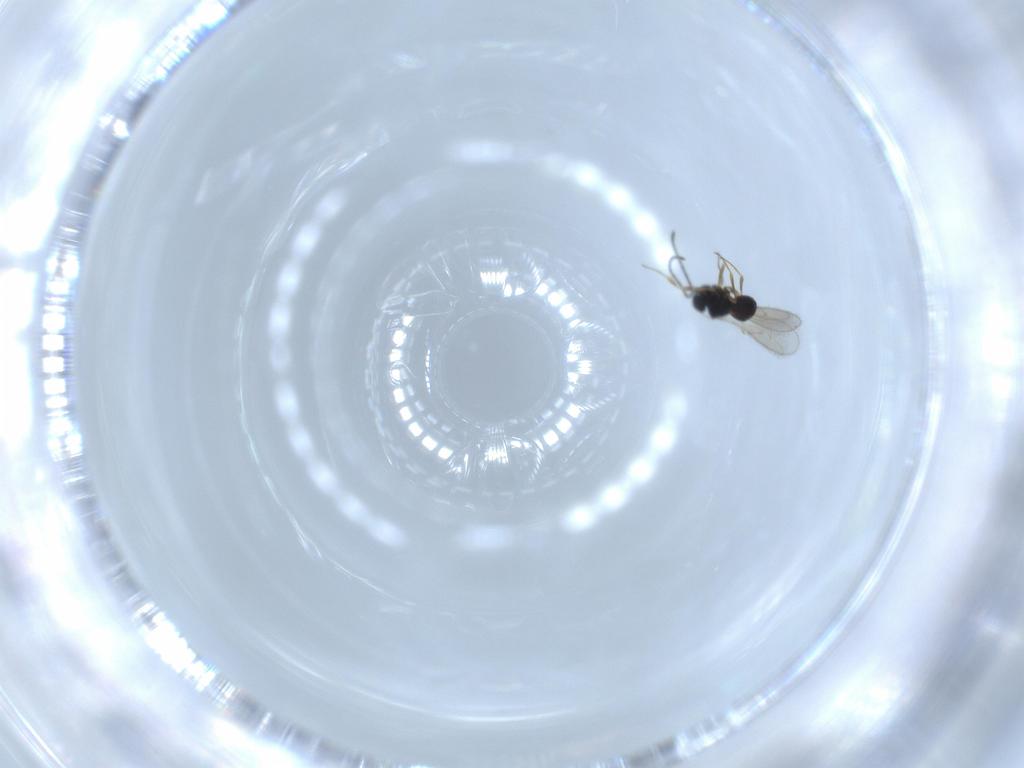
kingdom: Animalia
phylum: Arthropoda
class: Insecta
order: Hymenoptera
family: Scelionidae
